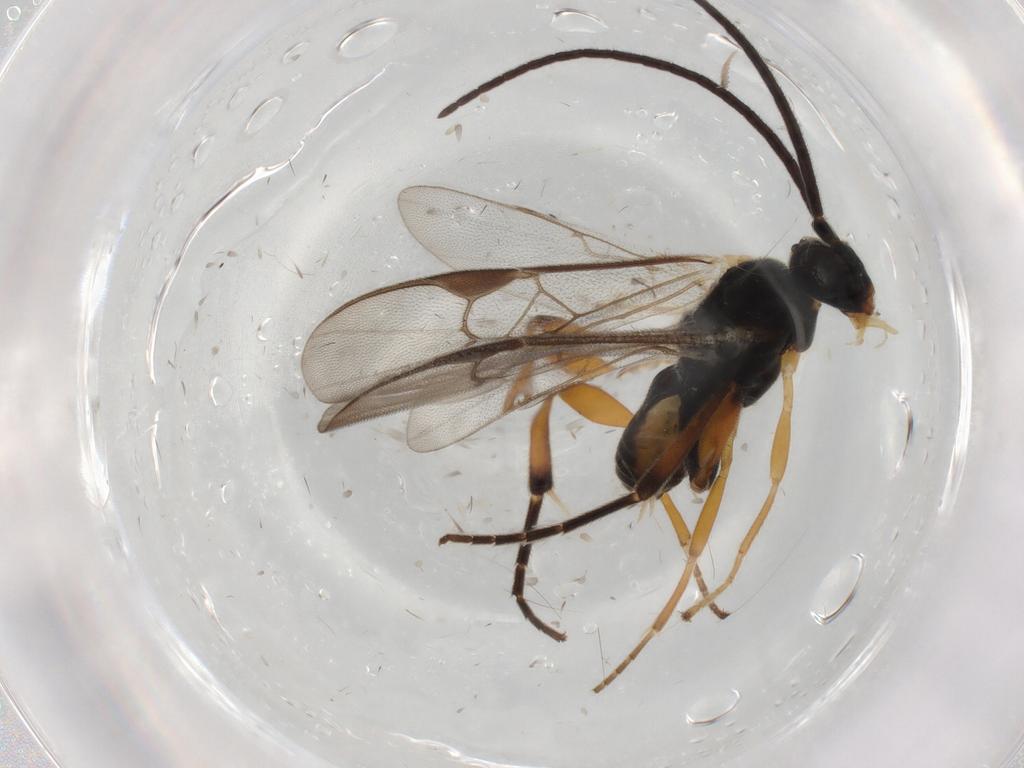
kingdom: Animalia
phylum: Arthropoda
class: Insecta
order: Hymenoptera
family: Braconidae
